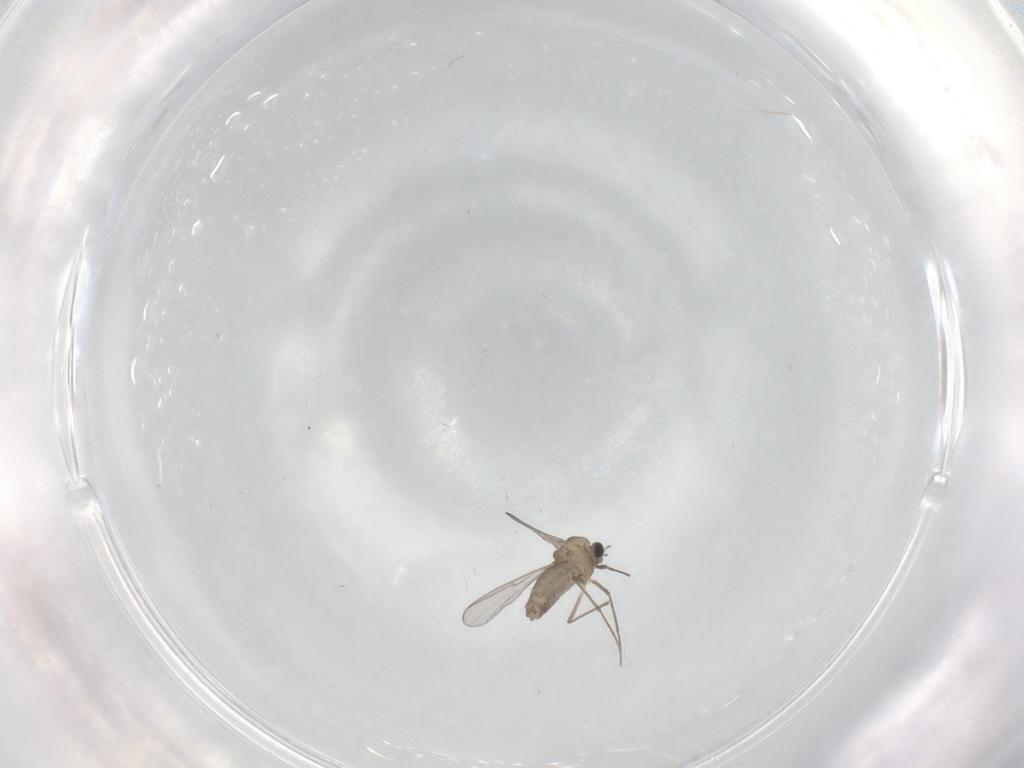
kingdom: Animalia
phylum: Arthropoda
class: Insecta
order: Diptera
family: Chironomidae
